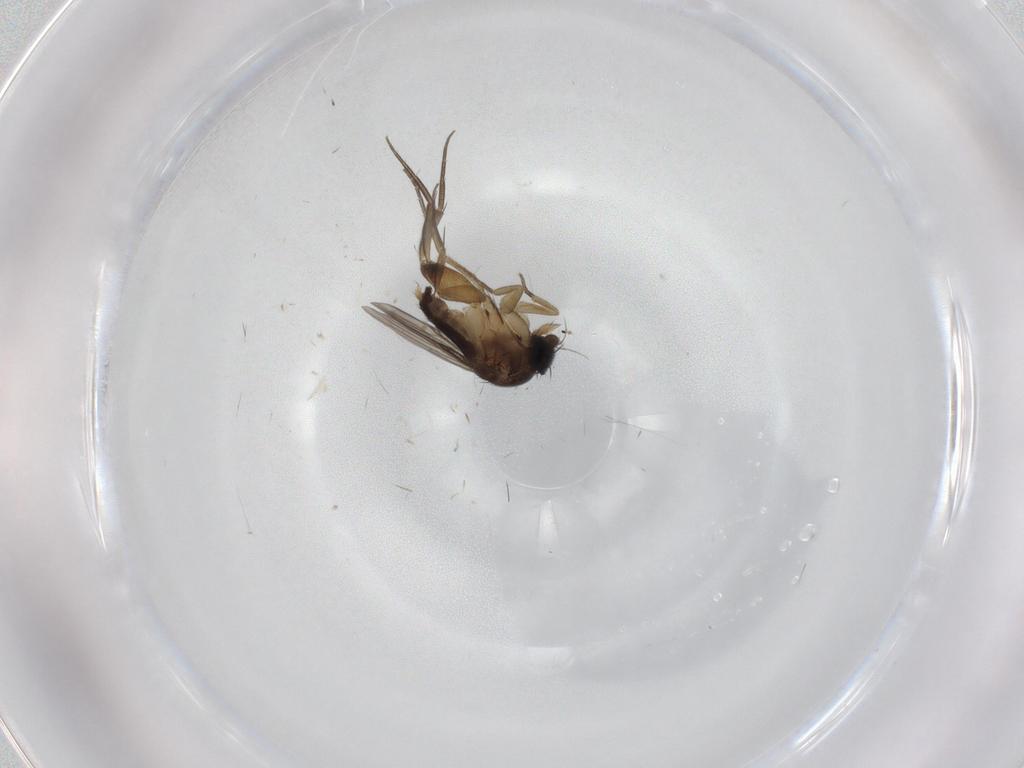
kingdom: Animalia
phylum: Arthropoda
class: Insecta
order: Diptera
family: Phoridae
